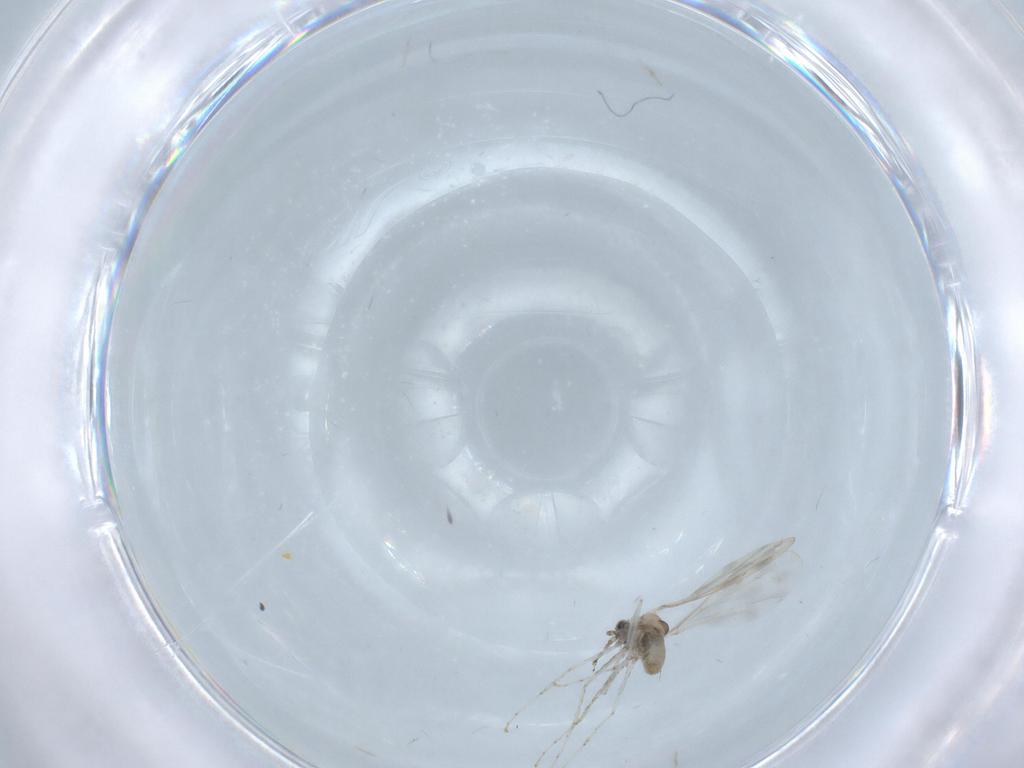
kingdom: Animalia
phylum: Arthropoda
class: Insecta
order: Diptera
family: Cecidomyiidae
